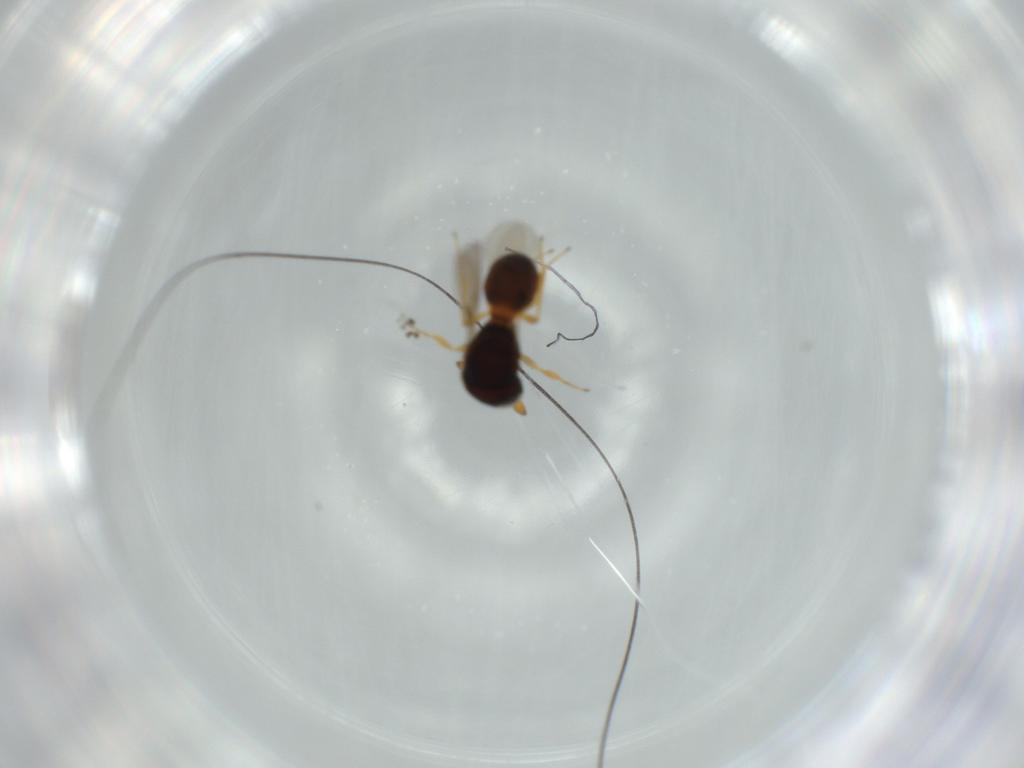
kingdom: Animalia
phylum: Arthropoda
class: Insecta
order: Hymenoptera
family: Scelionidae
